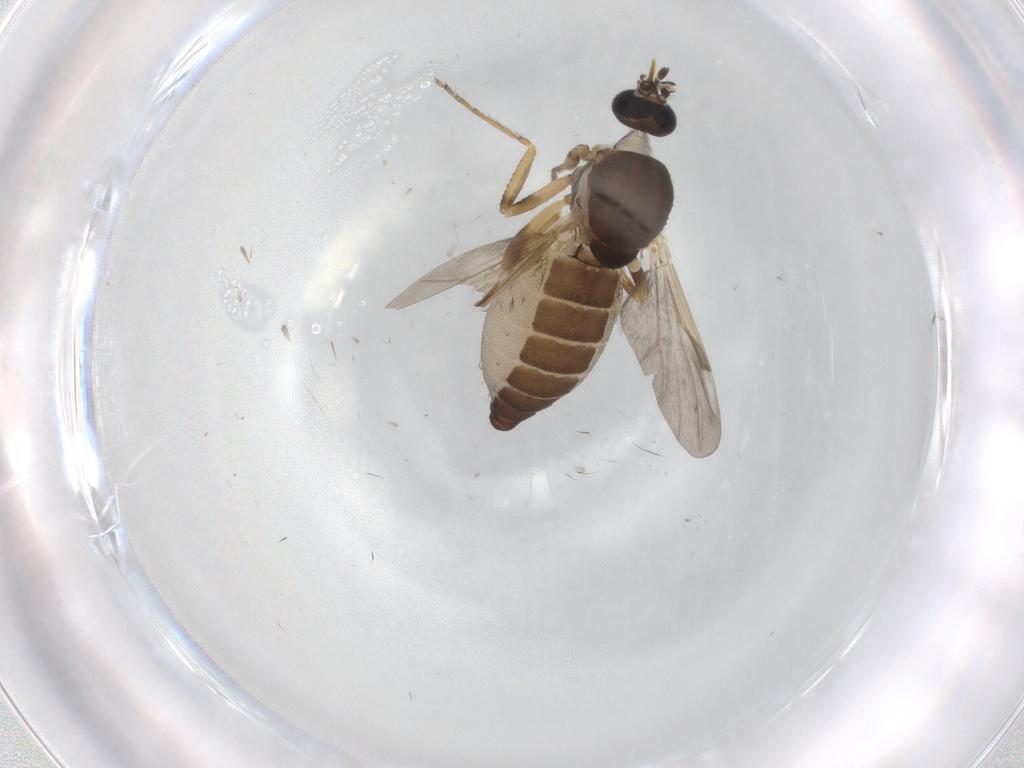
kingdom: Animalia
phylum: Arthropoda
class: Insecta
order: Diptera
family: Ceratopogonidae
